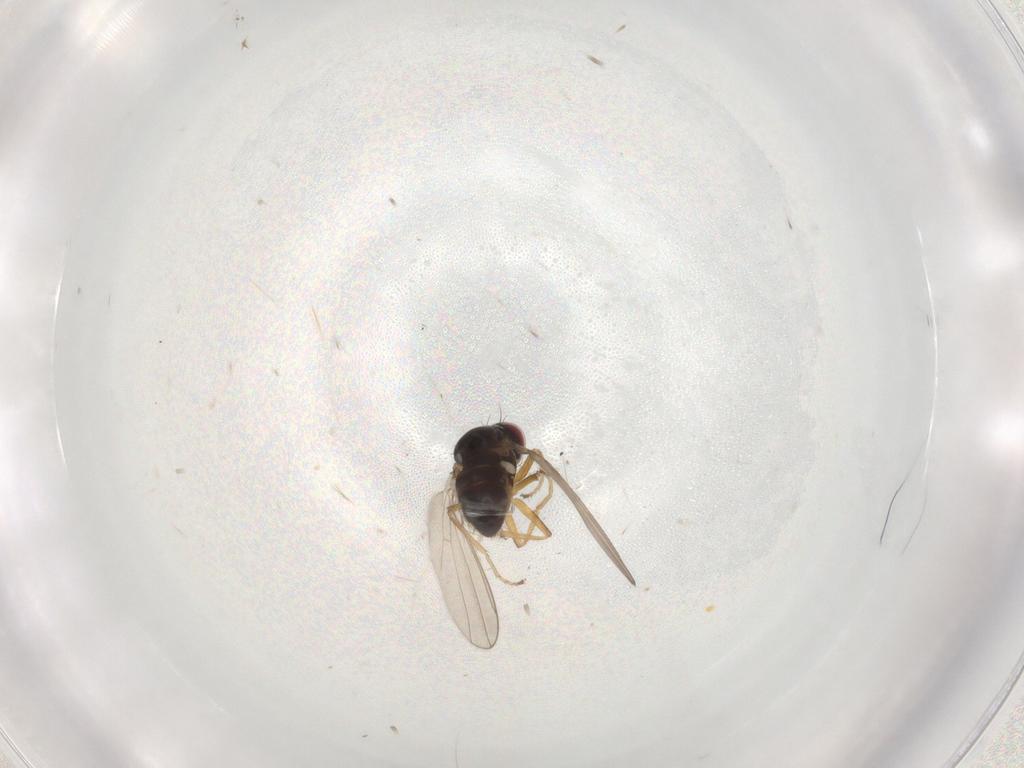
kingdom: Animalia
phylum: Arthropoda
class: Insecta
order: Diptera
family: Ephydridae
